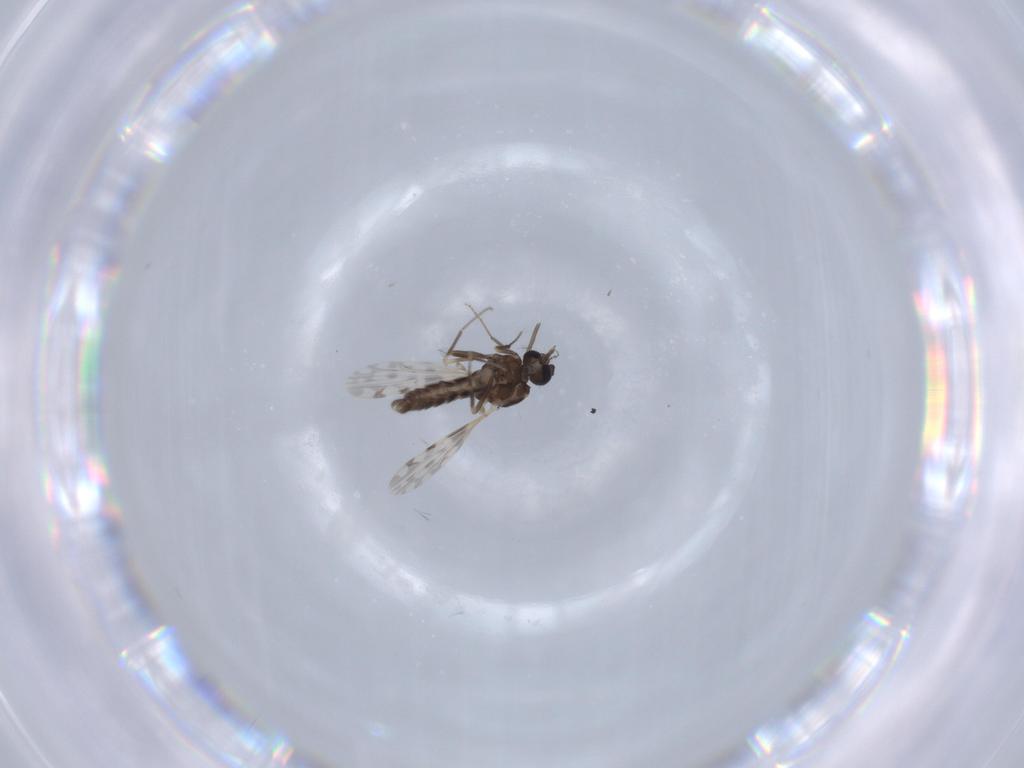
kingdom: Animalia
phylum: Arthropoda
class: Insecta
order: Diptera
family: Ceratopogonidae
